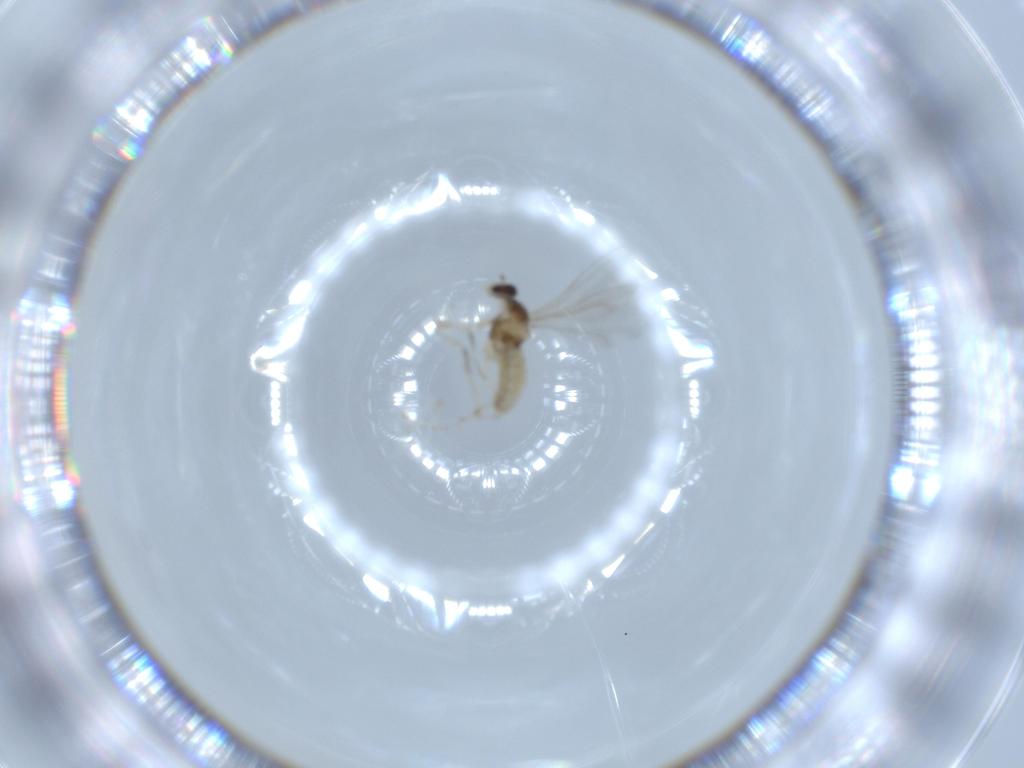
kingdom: Animalia
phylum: Arthropoda
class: Insecta
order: Diptera
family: Cecidomyiidae
